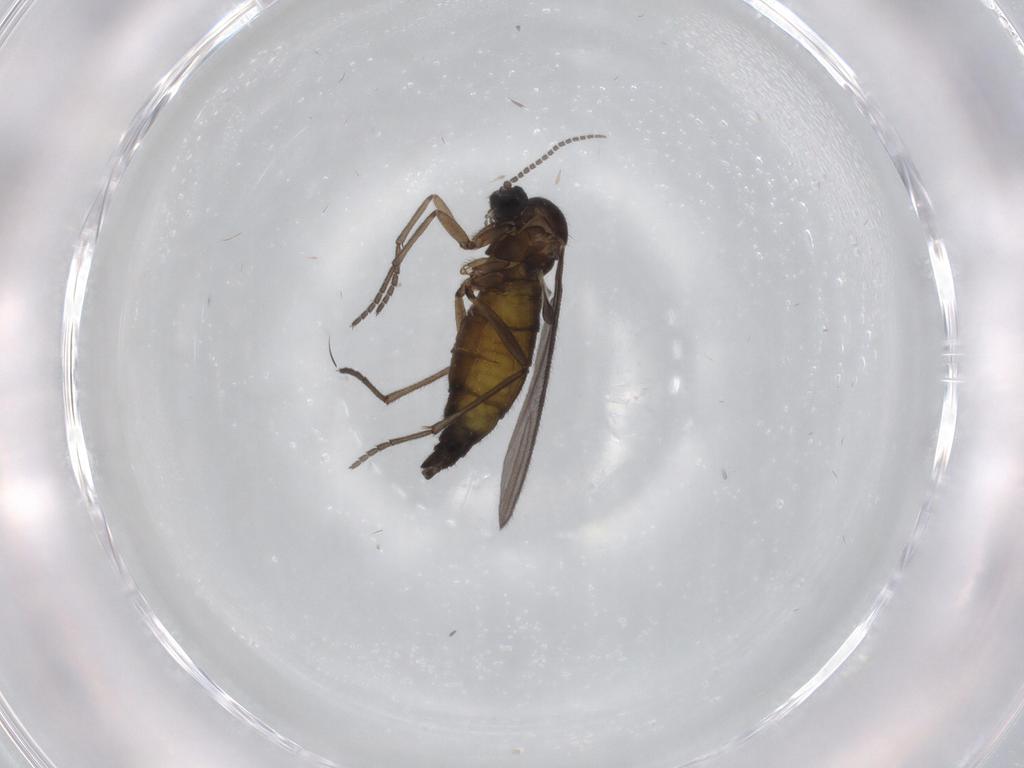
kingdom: Animalia
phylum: Arthropoda
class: Insecta
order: Diptera
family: Sciaridae
